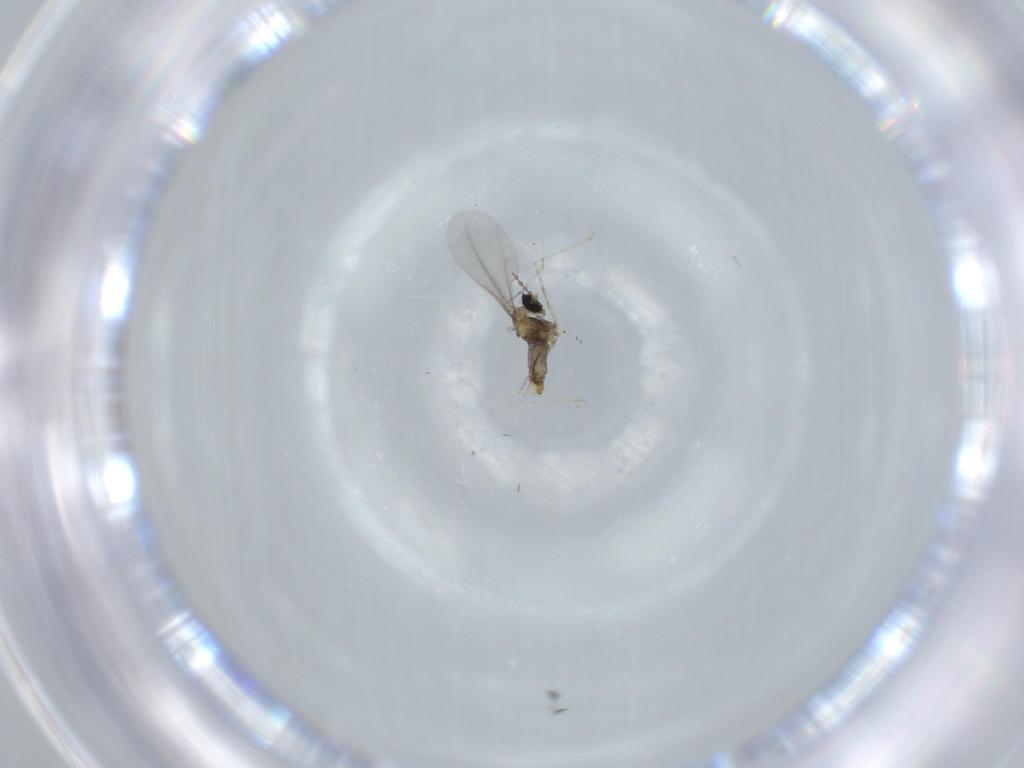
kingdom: Animalia
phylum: Arthropoda
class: Insecta
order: Diptera
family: Cecidomyiidae
